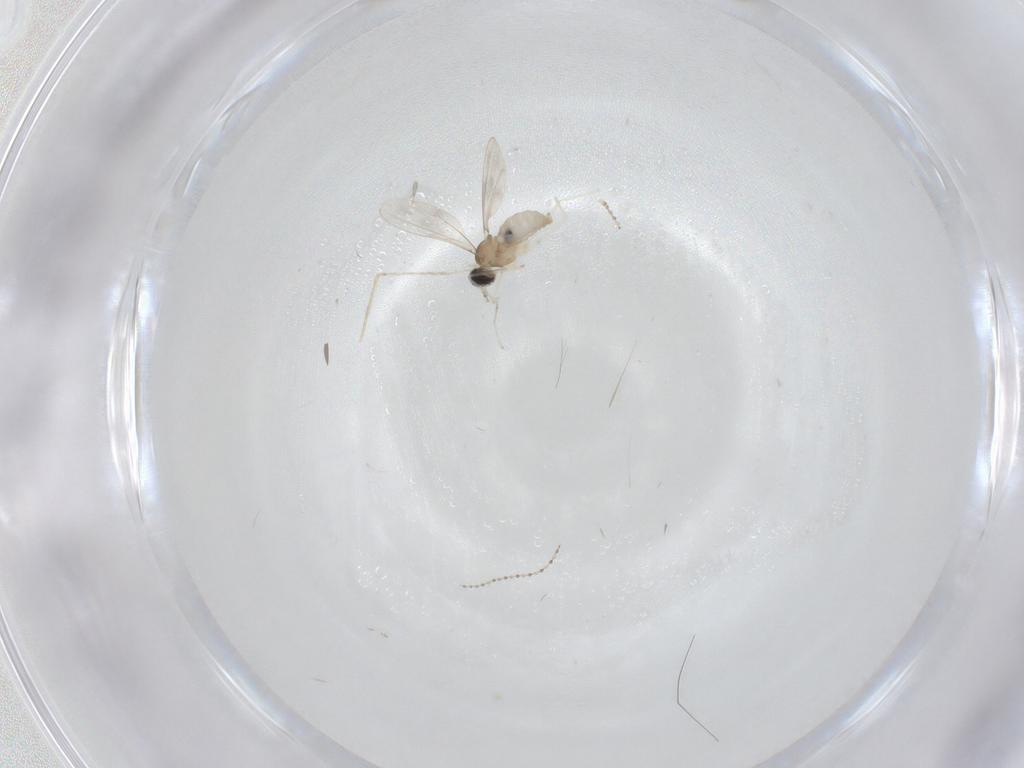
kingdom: Animalia
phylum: Arthropoda
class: Insecta
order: Diptera
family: Cecidomyiidae
